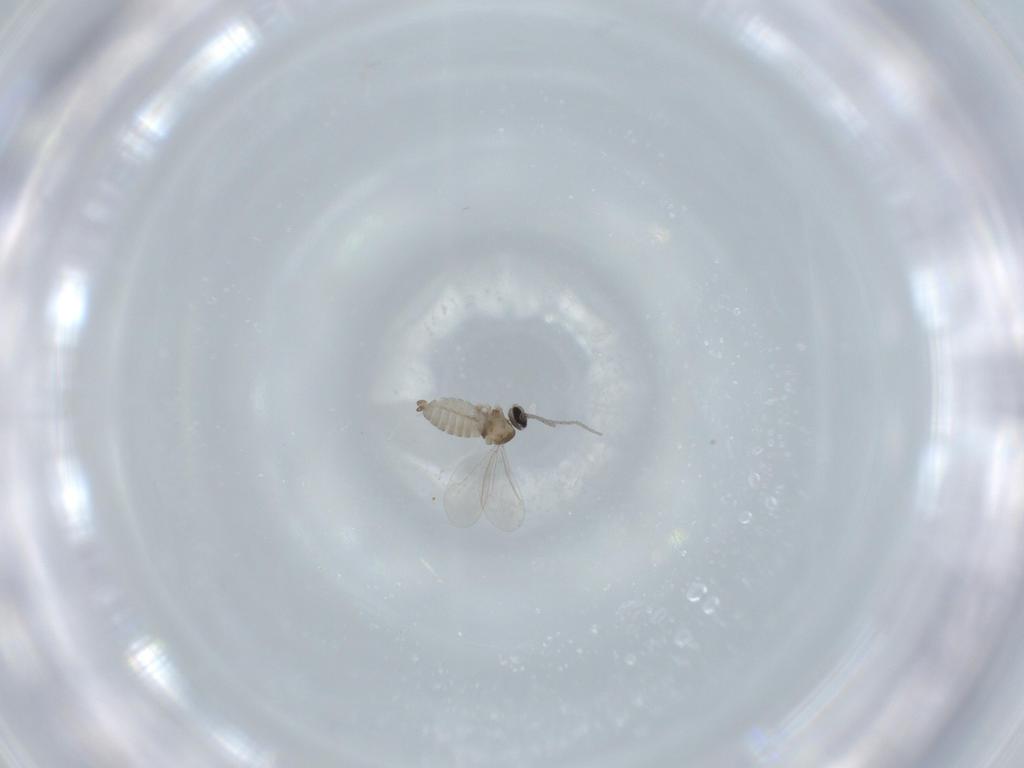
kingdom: Animalia
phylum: Arthropoda
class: Insecta
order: Diptera
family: Cecidomyiidae
